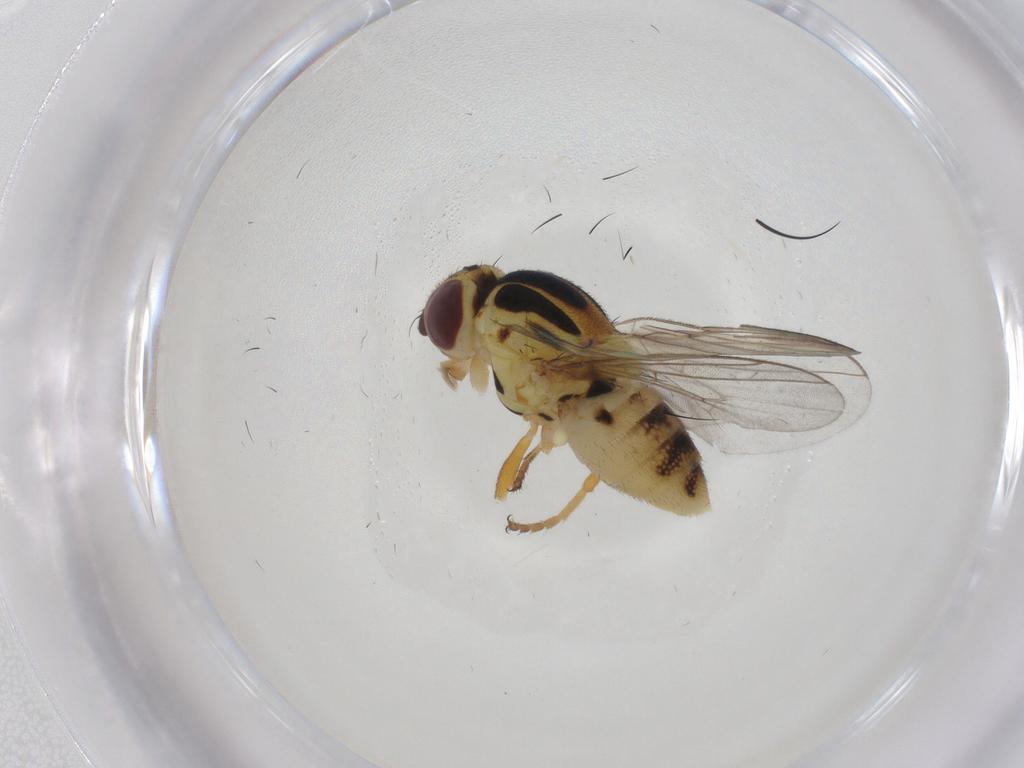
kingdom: Animalia
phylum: Arthropoda
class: Insecta
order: Diptera
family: Chloropidae
